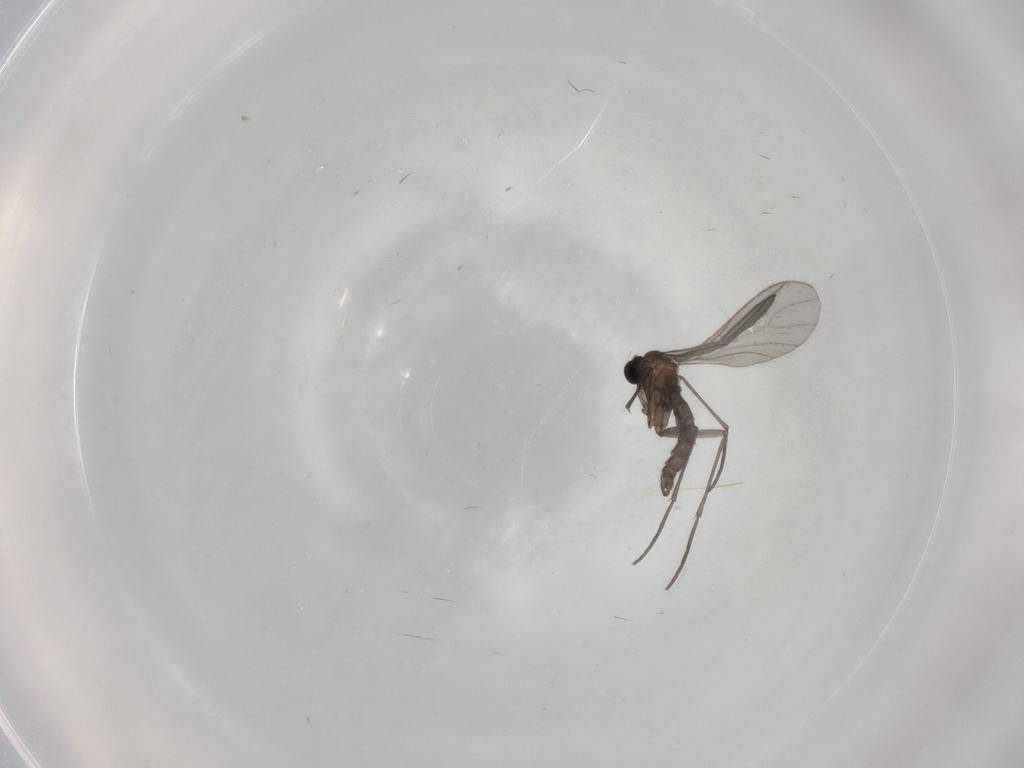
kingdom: Animalia
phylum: Arthropoda
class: Insecta
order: Diptera
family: Sciaridae
